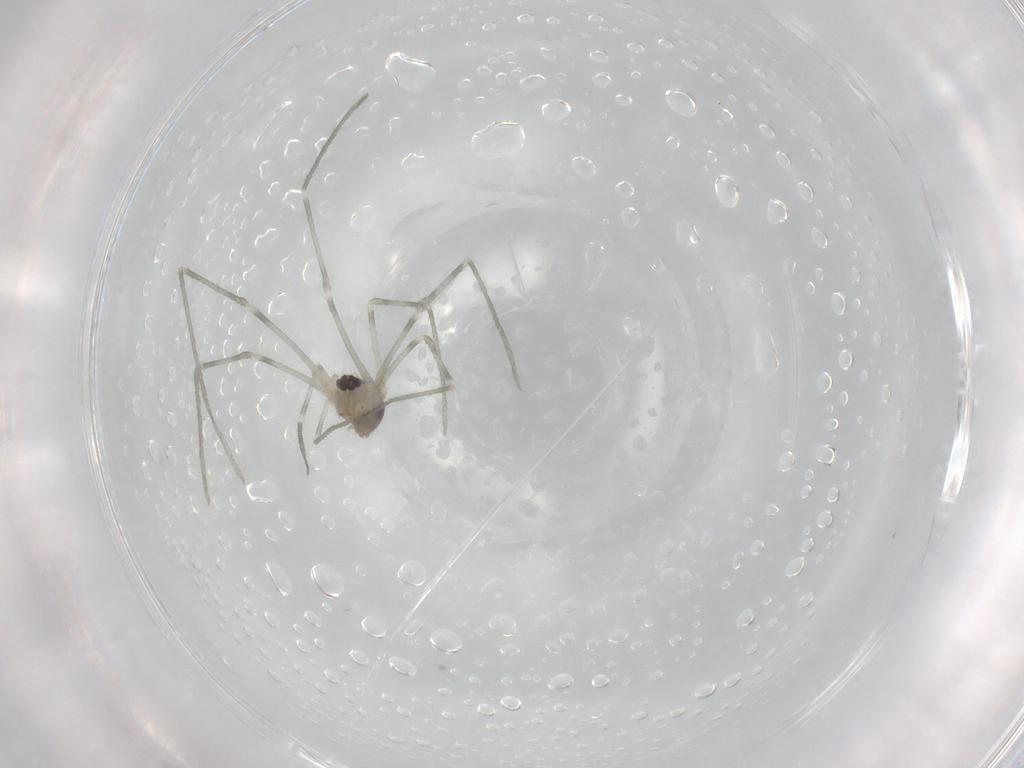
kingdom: Animalia
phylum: Arthropoda
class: Arachnida
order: Araneae
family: Pholcidae
